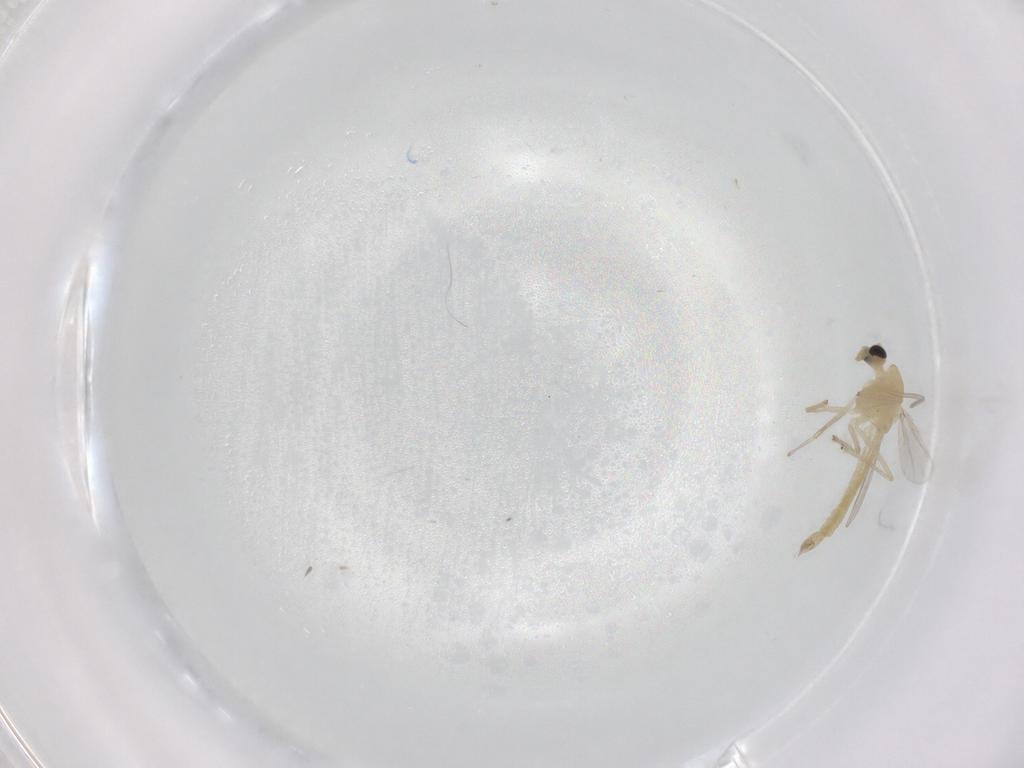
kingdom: Animalia
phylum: Arthropoda
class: Insecta
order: Diptera
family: Chironomidae
